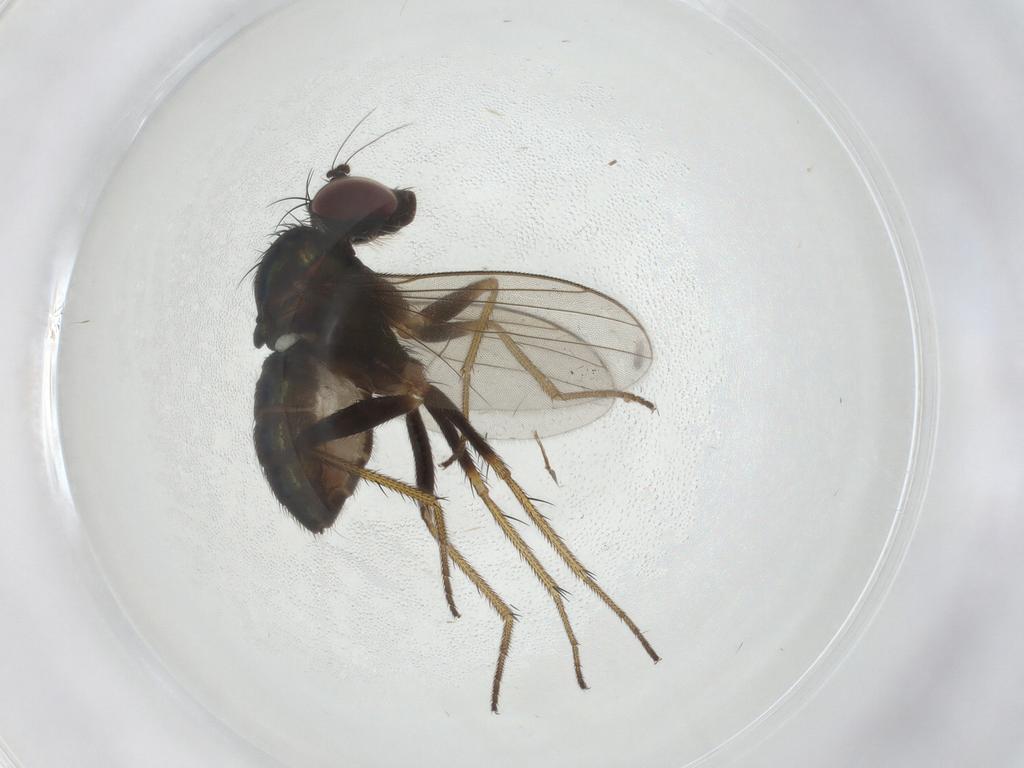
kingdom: Animalia
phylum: Arthropoda
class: Insecta
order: Diptera
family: Dolichopodidae
